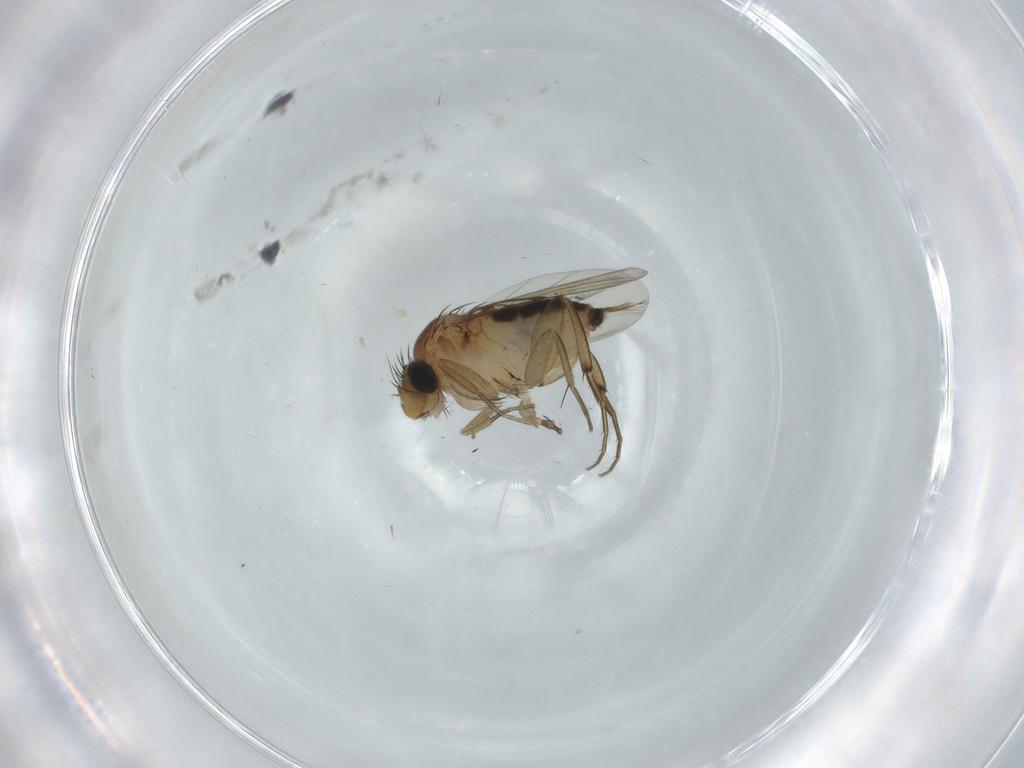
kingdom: Animalia
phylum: Arthropoda
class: Insecta
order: Diptera
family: Cecidomyiidae
